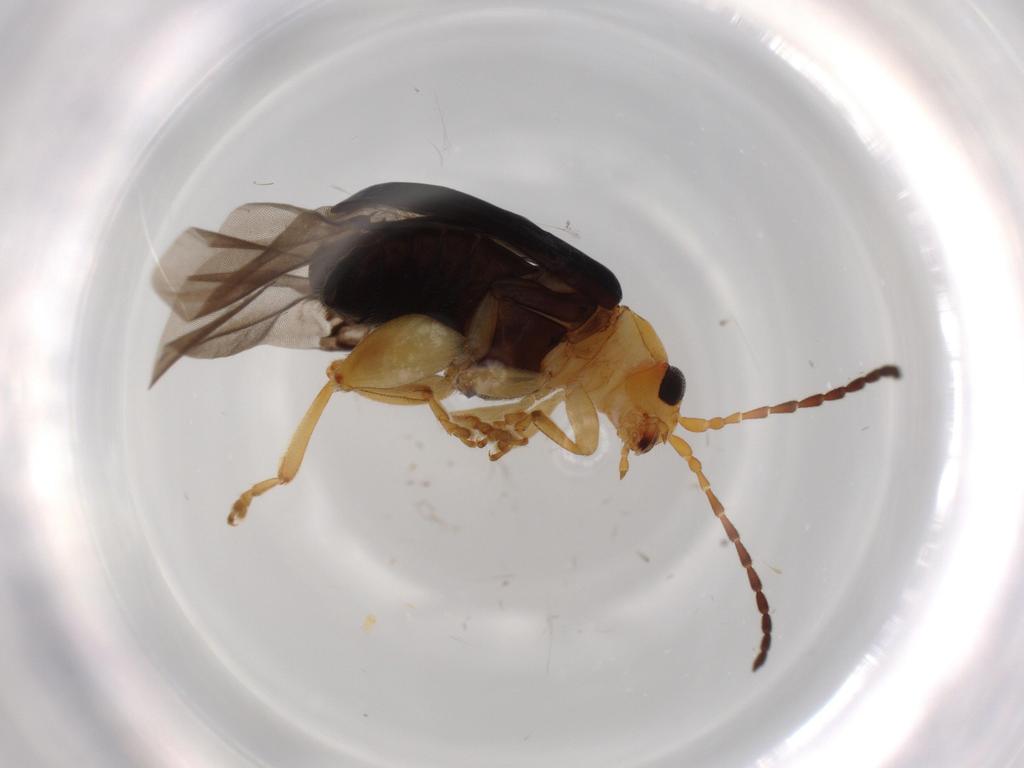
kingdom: Animalia
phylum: Arthropoda
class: Insecta
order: Coleoptera
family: Chrysomelidae
